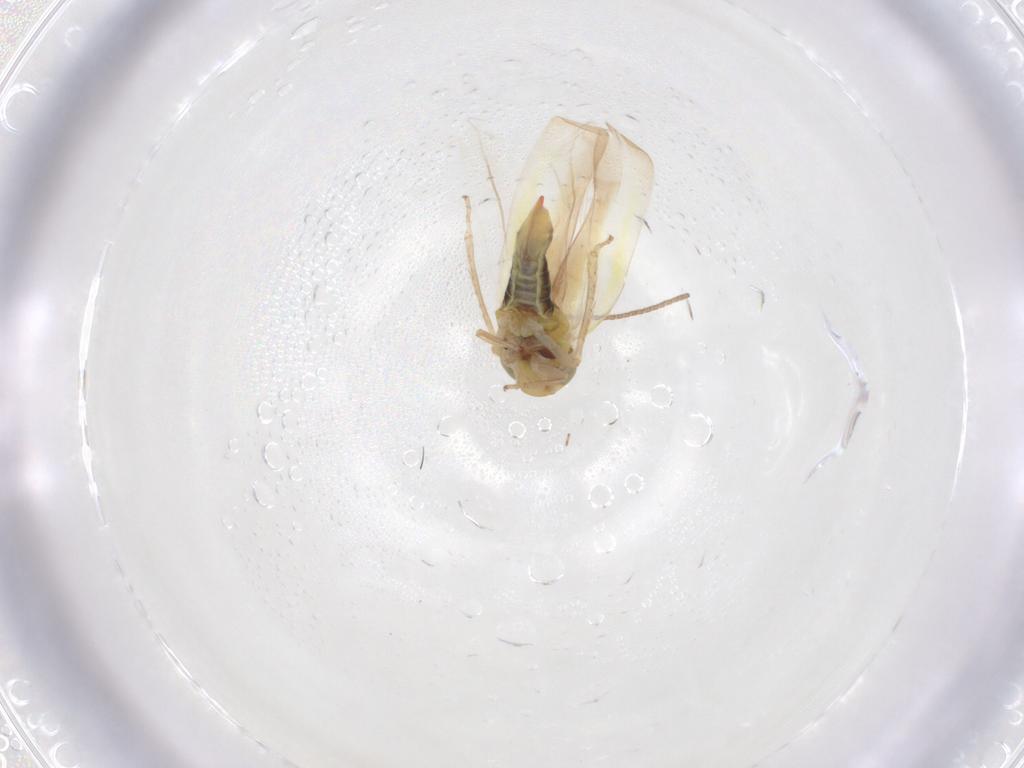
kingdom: Animalia
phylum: Arthropoda
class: Insecta
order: Hemiptera
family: Cicadellidae
